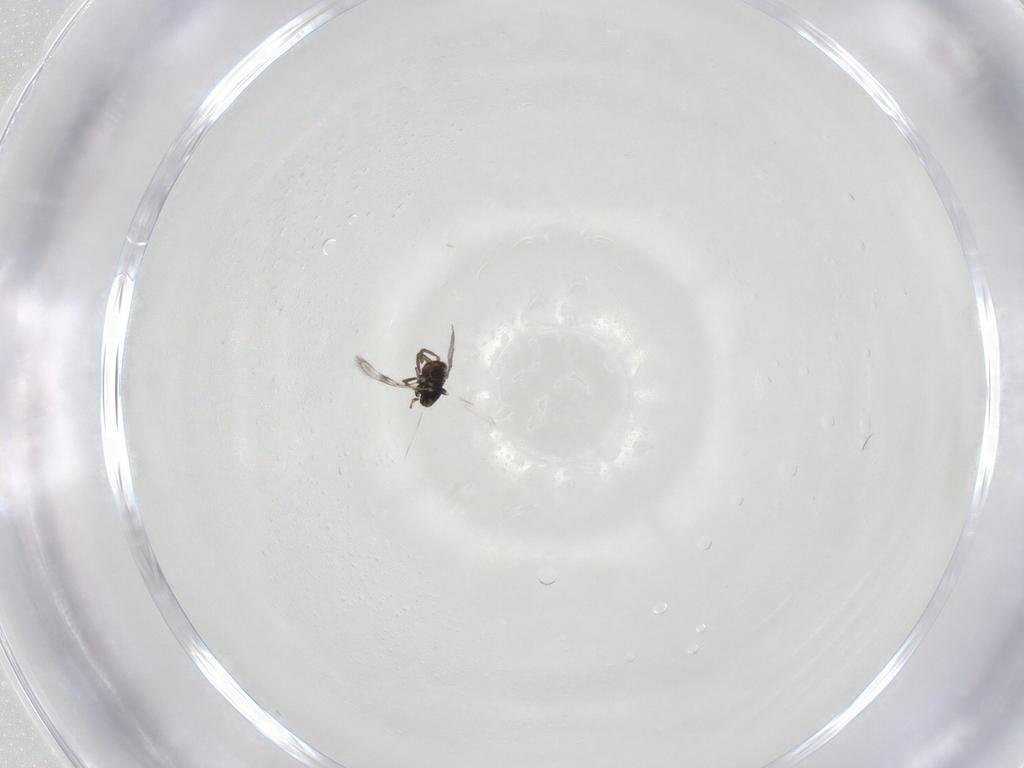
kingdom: Animalia
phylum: Arthropoda
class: Insecta
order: Hymenoptera
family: Azotidae
